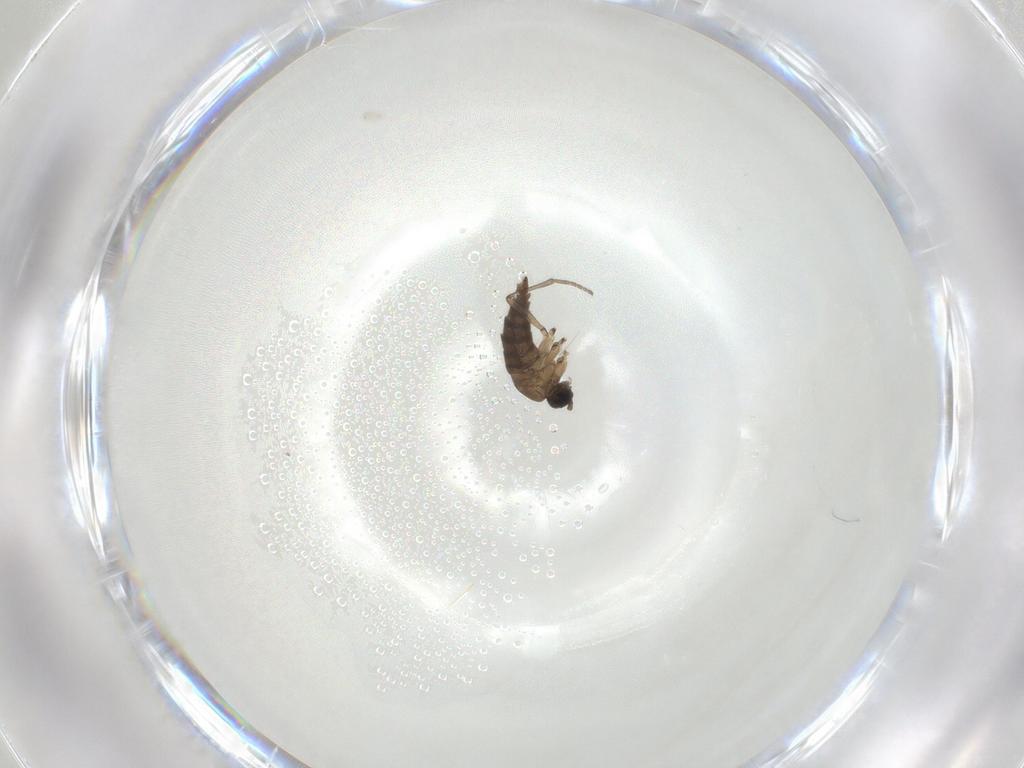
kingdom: Animalia
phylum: Arthropoda
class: Insecta
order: Diptera
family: Sciaridae
